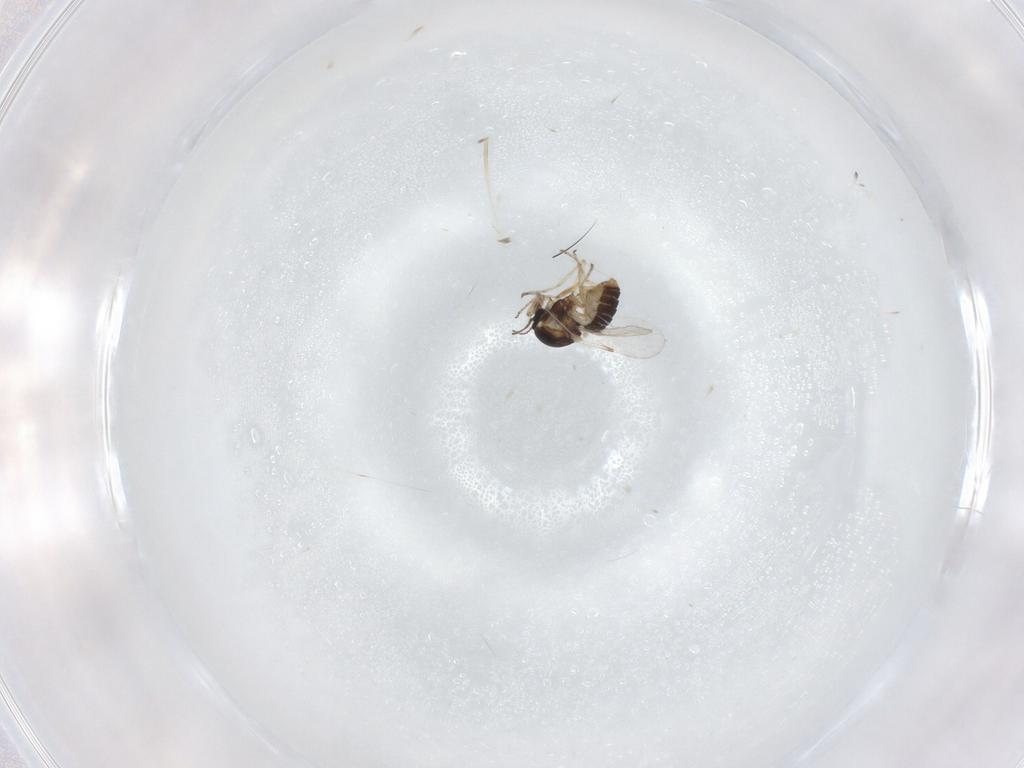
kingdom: Animalia
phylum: Arthropoda
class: Insecta
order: Diptera
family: Ceratopogonidae
